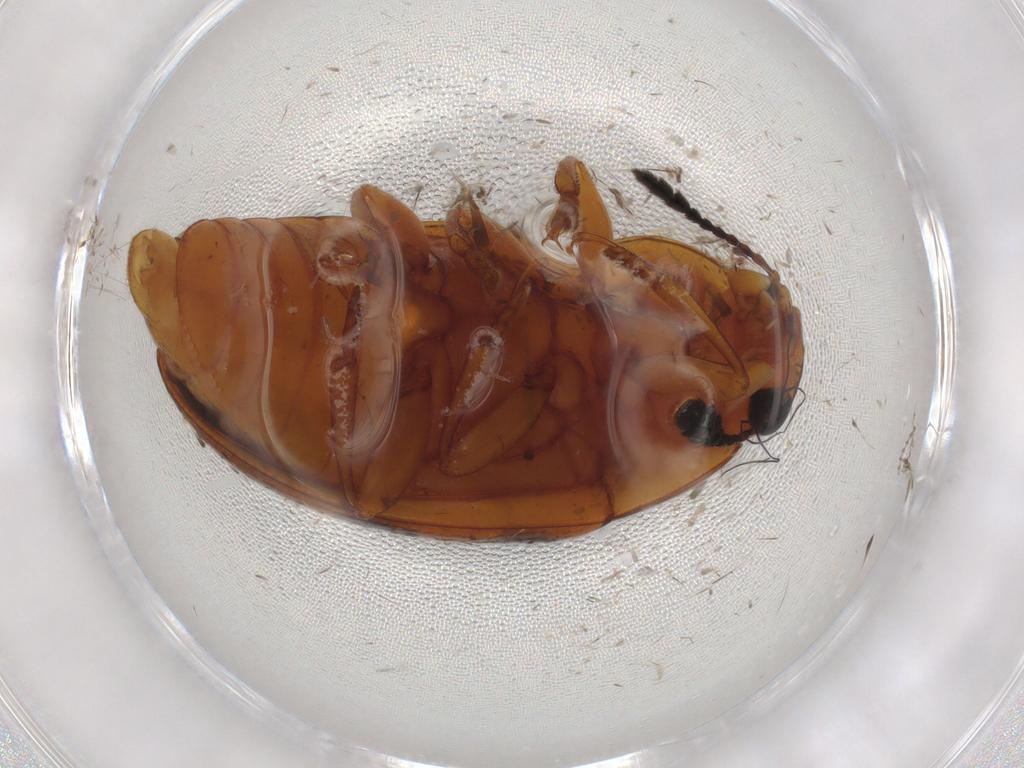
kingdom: Animalia
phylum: Arthropoda
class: Insecta
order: Coleoptera
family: Erotylidae
